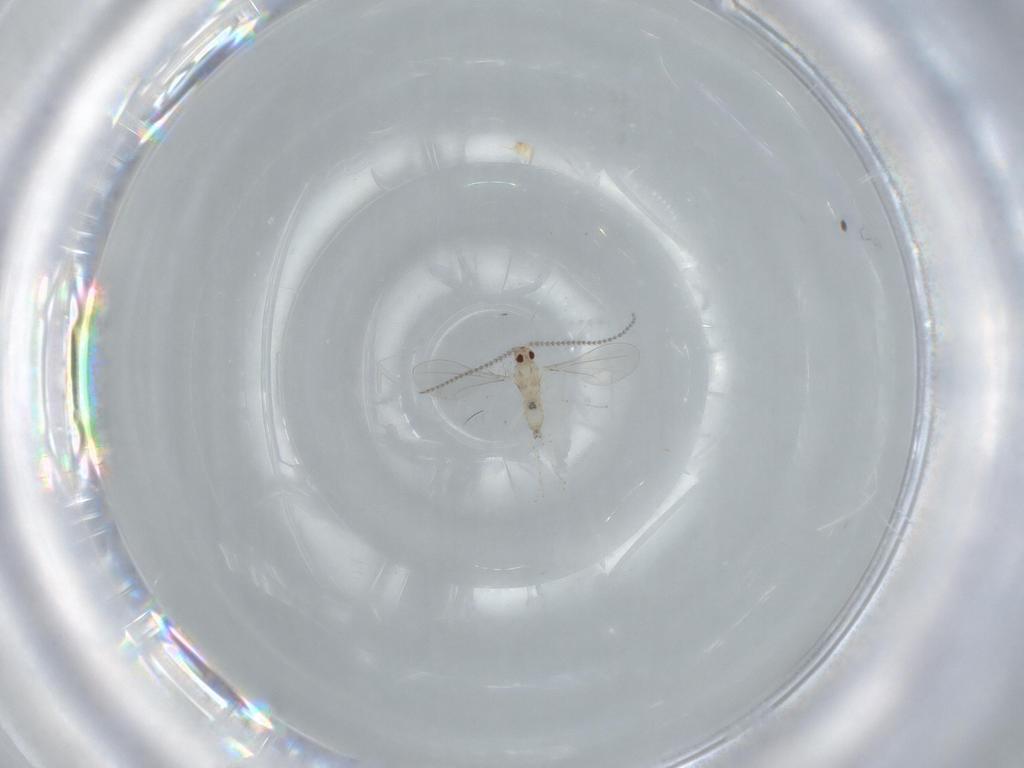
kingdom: Animalia
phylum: Arthropoda
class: Insecta
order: Diptera
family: Cecidomyiidae
